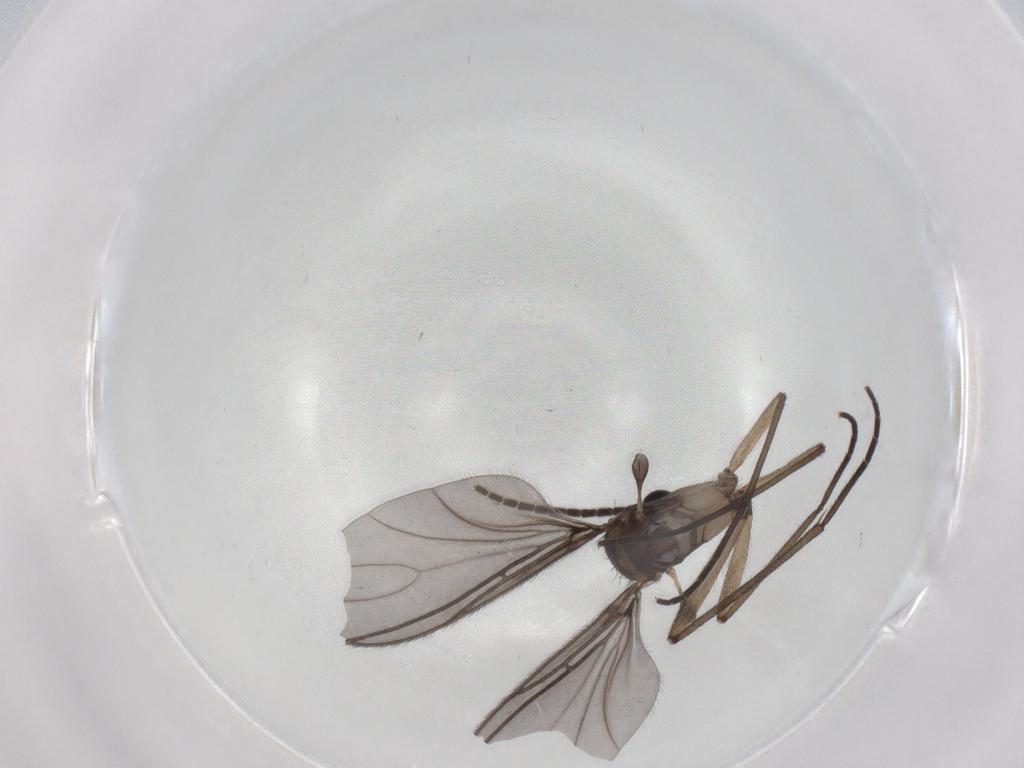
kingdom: Animalia
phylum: Arthropoda
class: Insecta
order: Diptera
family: Sciaridae
